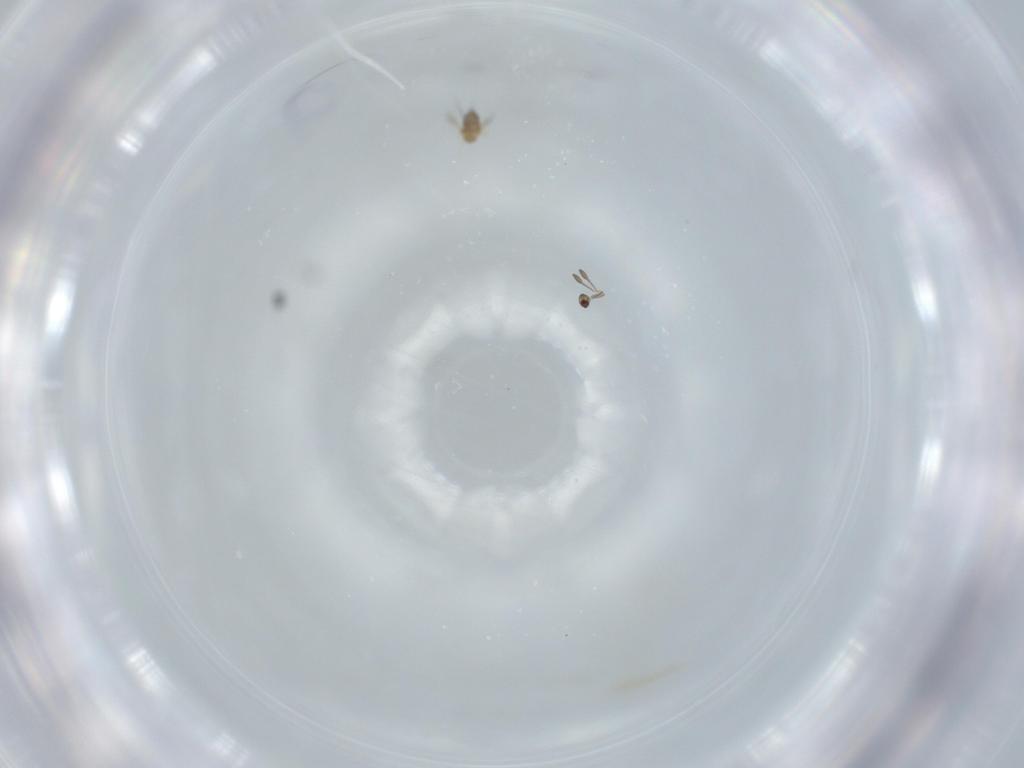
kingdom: Animalia
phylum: Arthropoda
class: Insecta
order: Hymenoptera
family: Mymaridae
